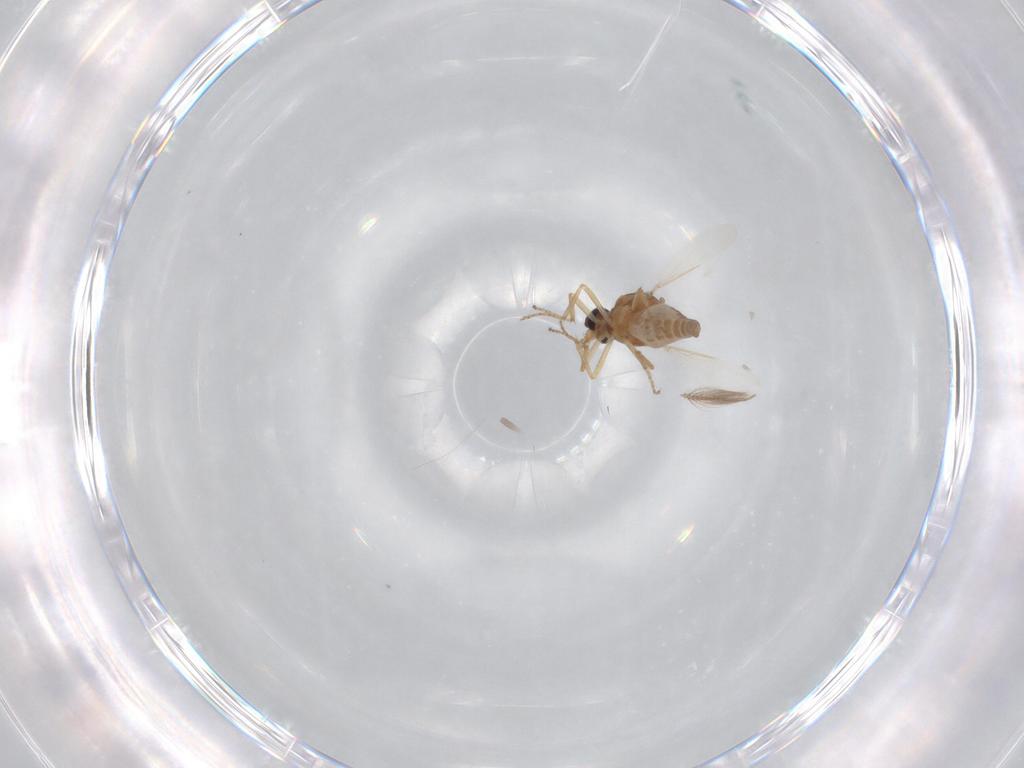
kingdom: Animalia
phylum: Arthropoda
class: Insecta
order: Diptera
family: Ceratopogonidae
